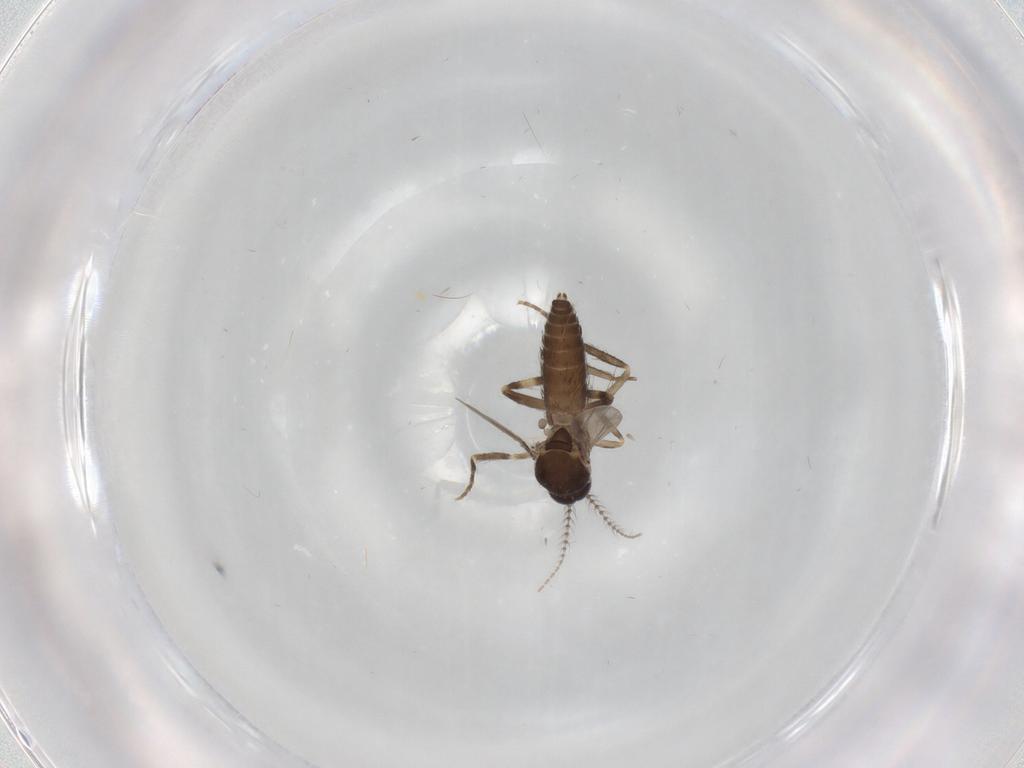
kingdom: Animalia
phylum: Arthropoda
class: Insecta
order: Diptera
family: Ceratopogonidae
